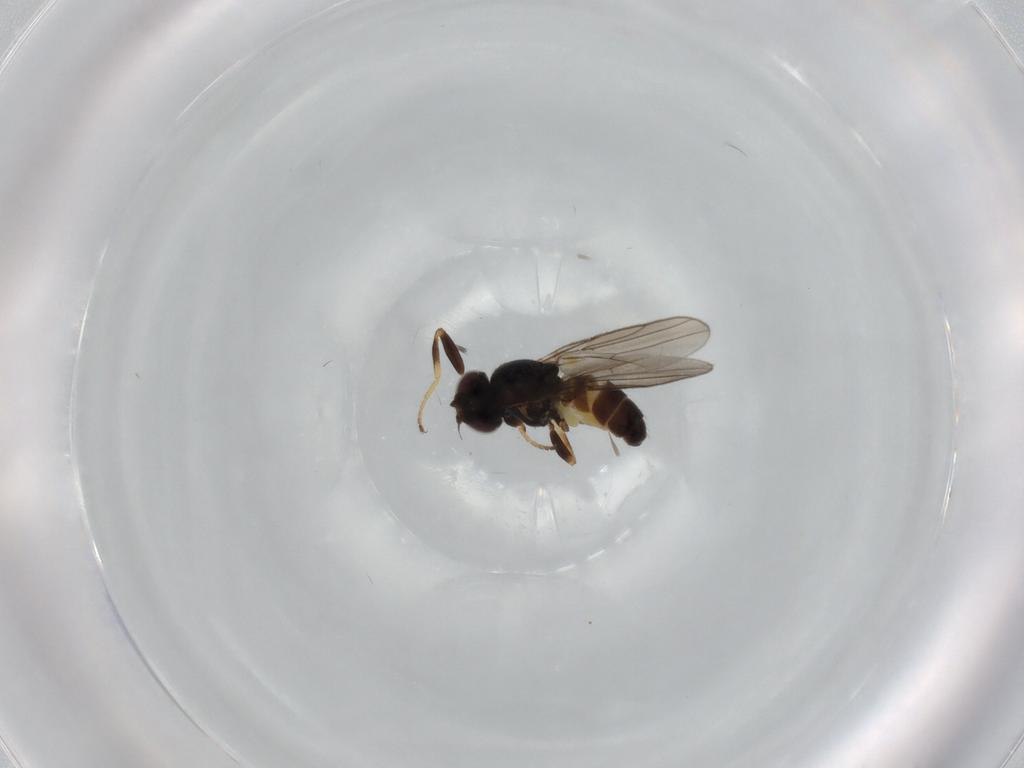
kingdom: Animalia
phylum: Arthropoda
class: Insecta
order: Diptera
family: Chloropidae
